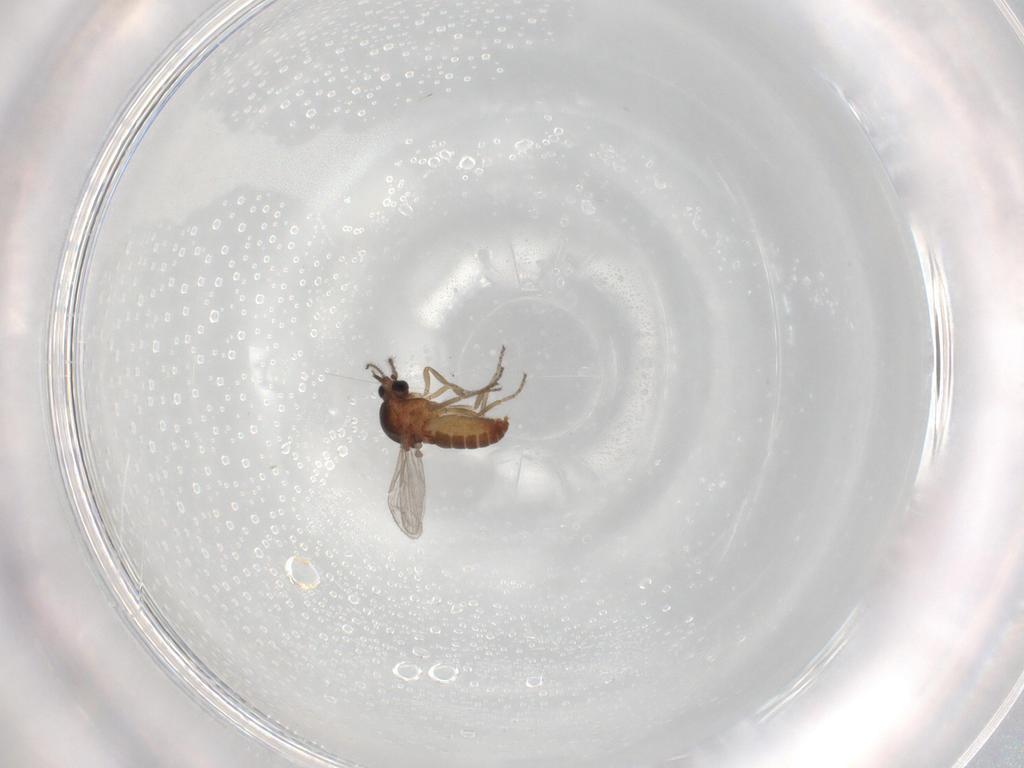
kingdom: Animalia
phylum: Arthropoda
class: Insecta
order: Diptera
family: Ceratopogonidae
